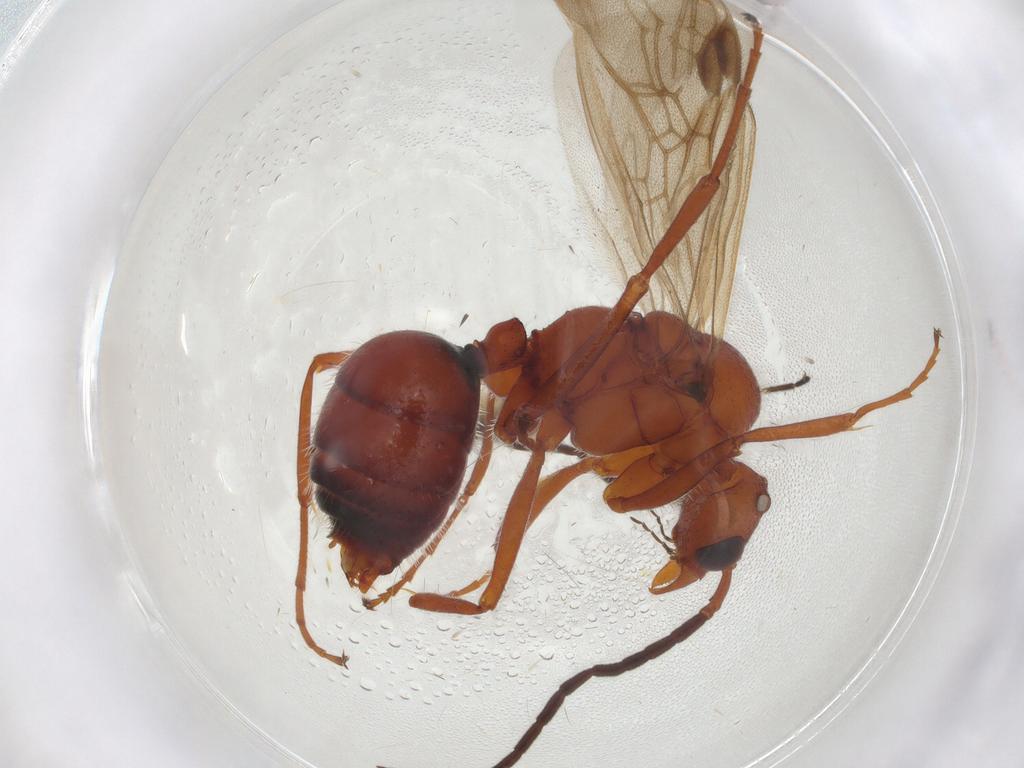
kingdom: Animalia
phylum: Arthropoda
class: Insecta
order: Hymenoptera
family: Formicidae
